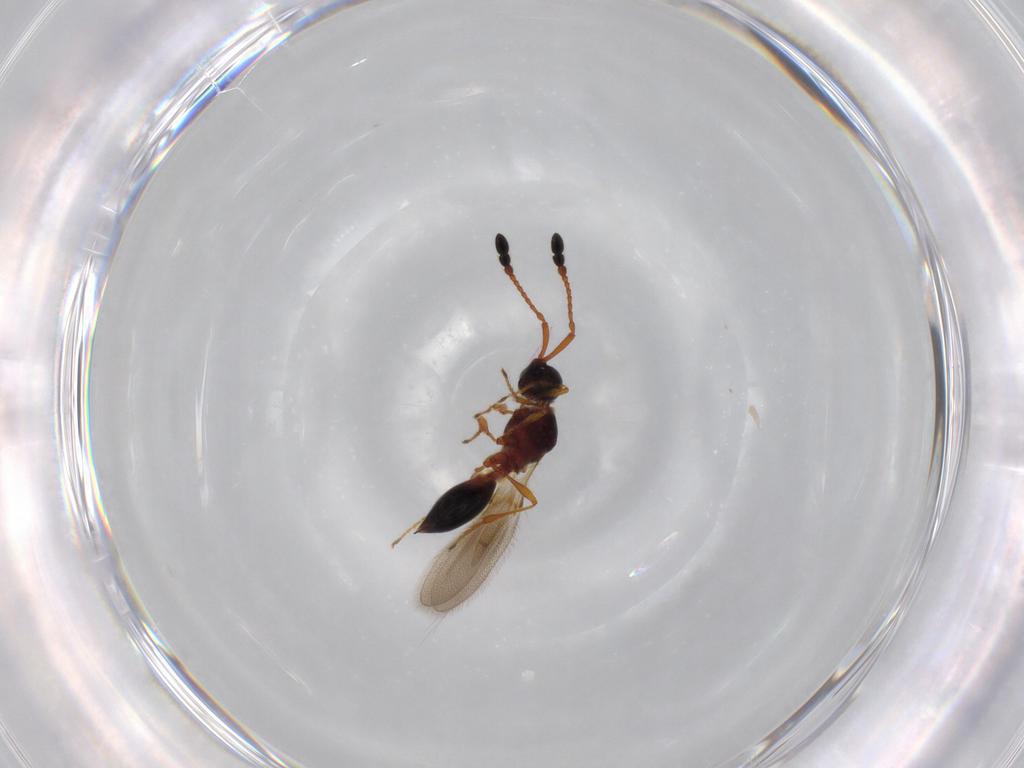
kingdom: Animalia
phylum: Arthropoda
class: Insecta
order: Hymenoptera
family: Diapriidae
